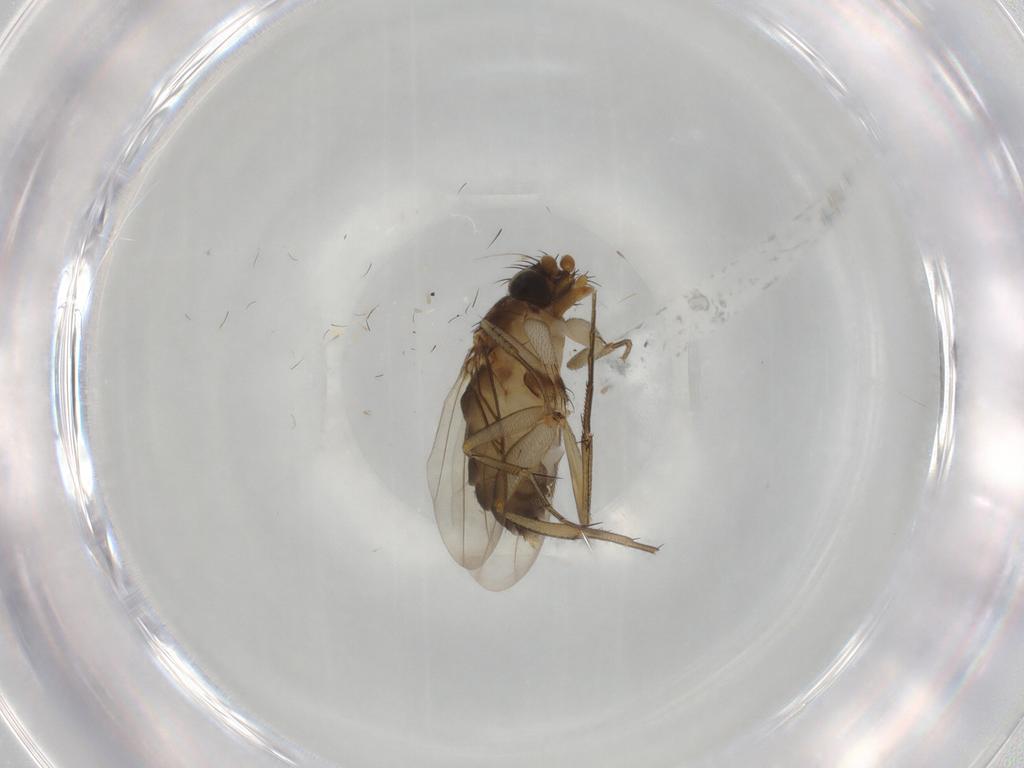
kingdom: Animalia
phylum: Arthropoda
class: Insecta
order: Diptera
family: Phoridae
